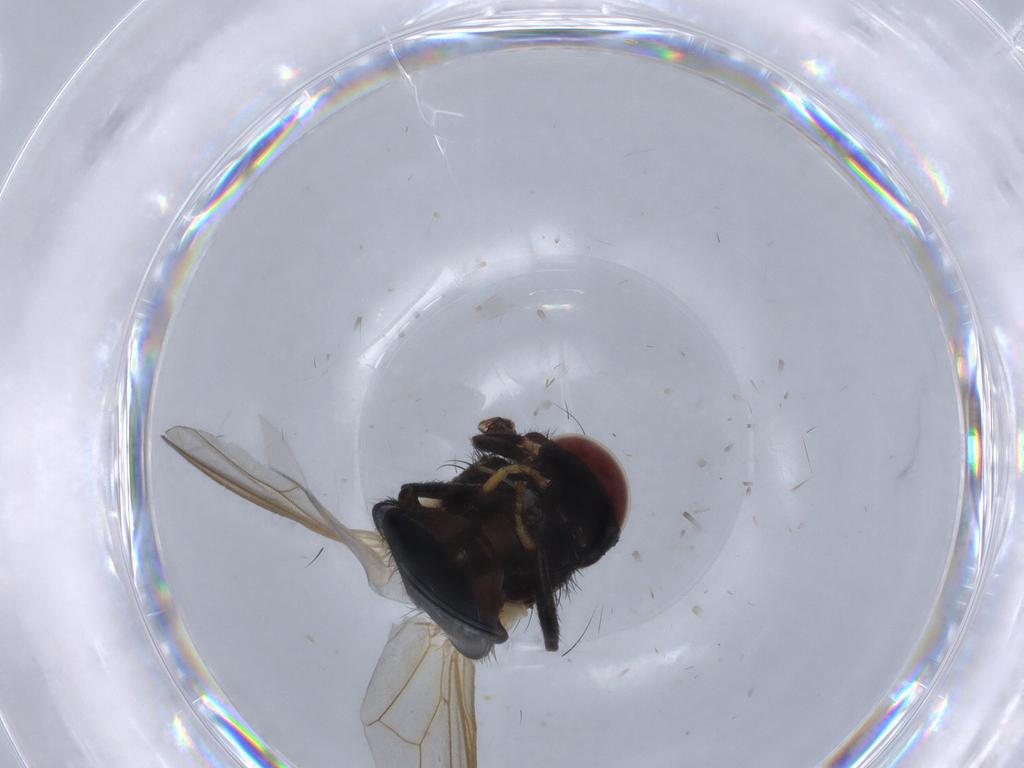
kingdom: Animalia
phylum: Arthropoda
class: Insecta
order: Diptera
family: Lonchaeidae
